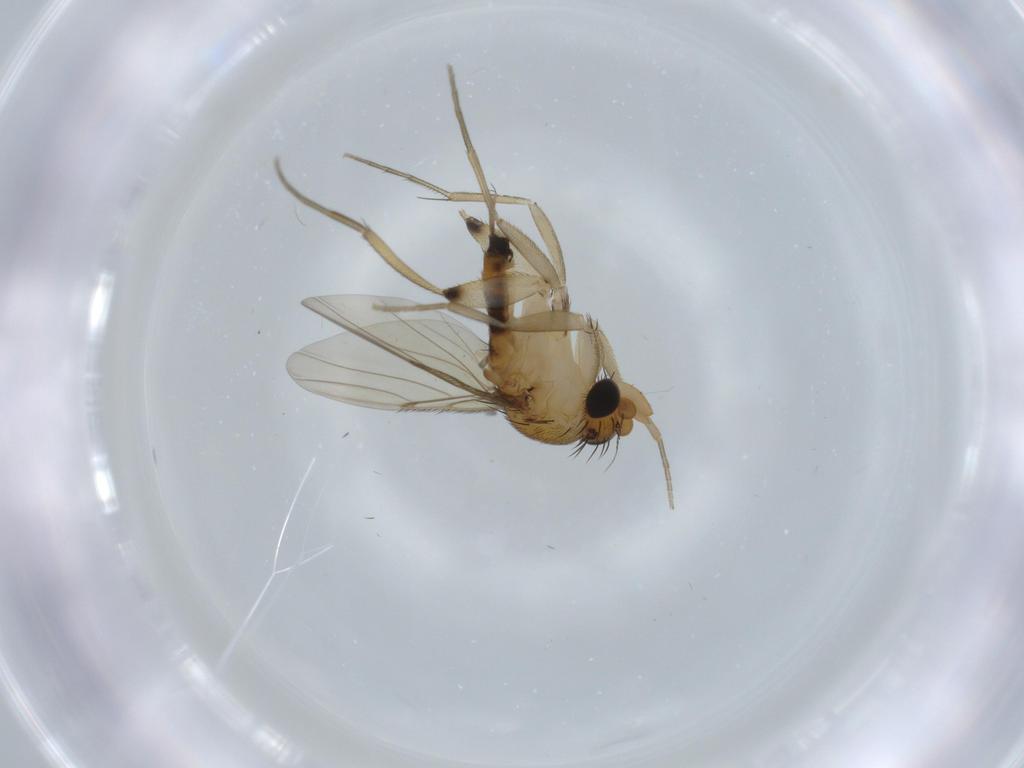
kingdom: Animalia
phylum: Arthropoda
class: Insecta
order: Diptera
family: Phoridae
